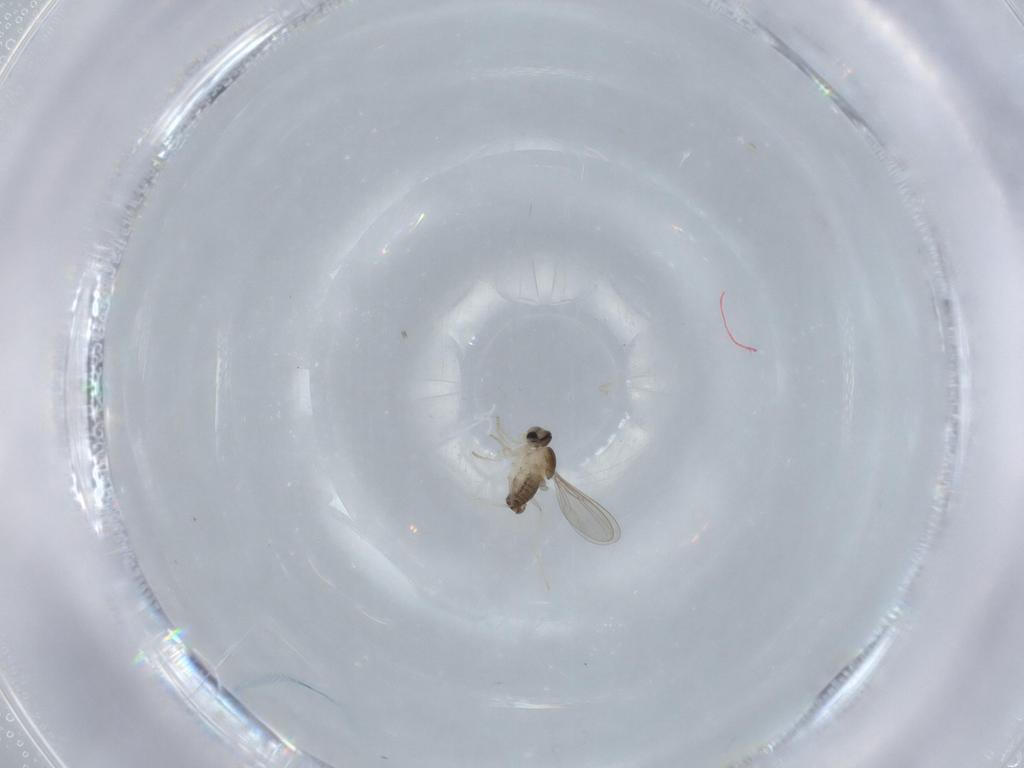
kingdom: Animalia
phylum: Arthropoda
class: Insecta
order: Diptera
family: Cecidomyiidae
